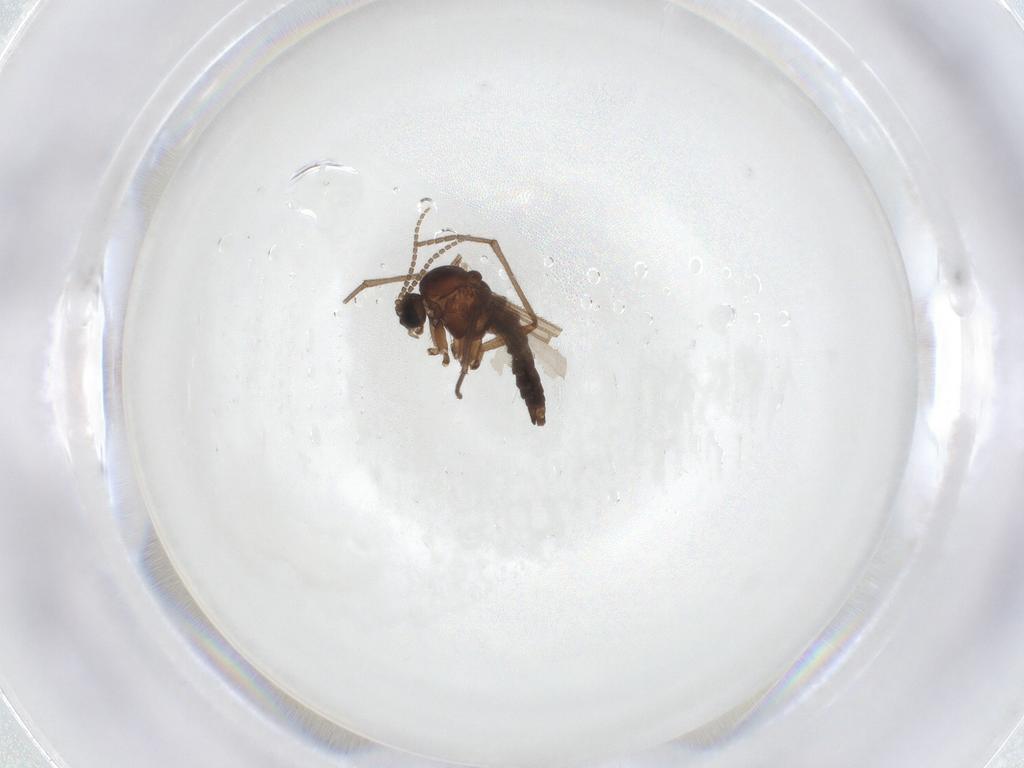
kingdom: Animalia
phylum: Arthropoda
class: Insecta
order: Diptera
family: Sciaridae
